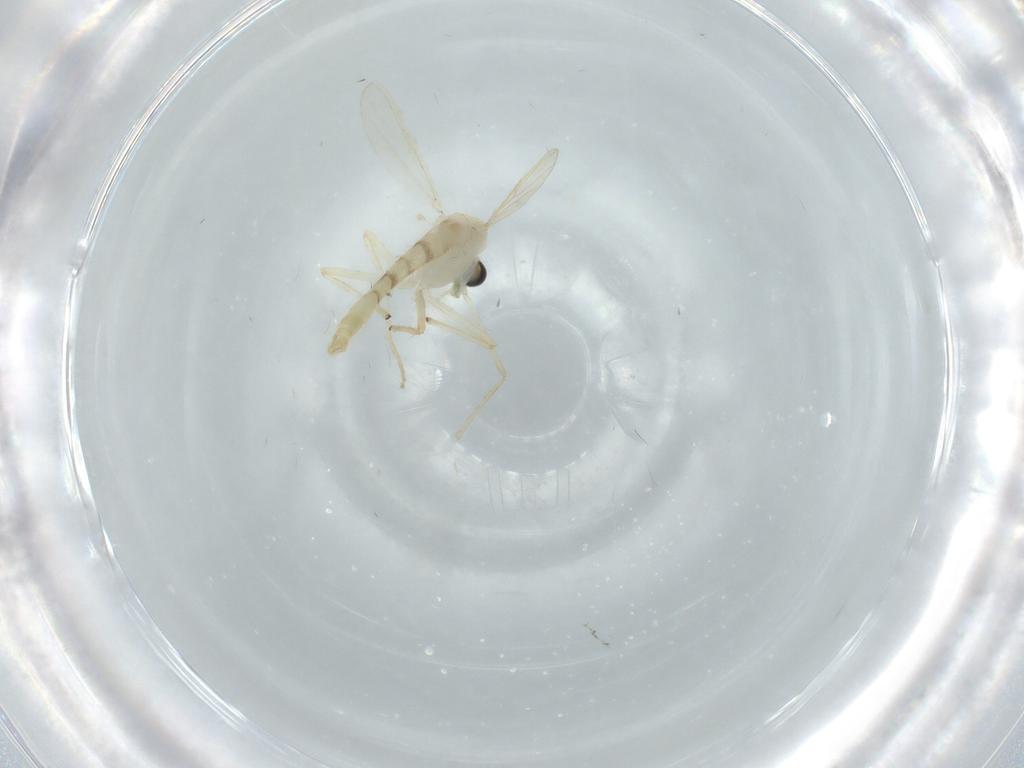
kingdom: Animalia
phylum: Arthropoda
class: Insecta
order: Diptera
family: Chironomidae
